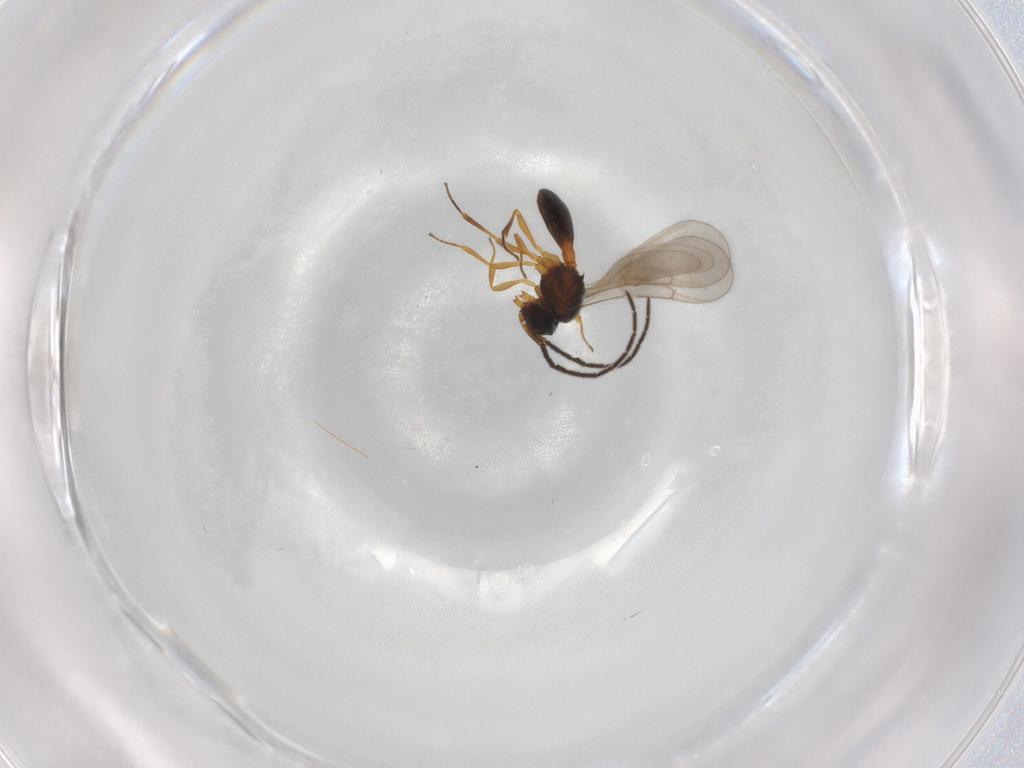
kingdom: Animalia
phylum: Arthropoda
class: Insecta
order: Hymenoptera
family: Scelionidae
